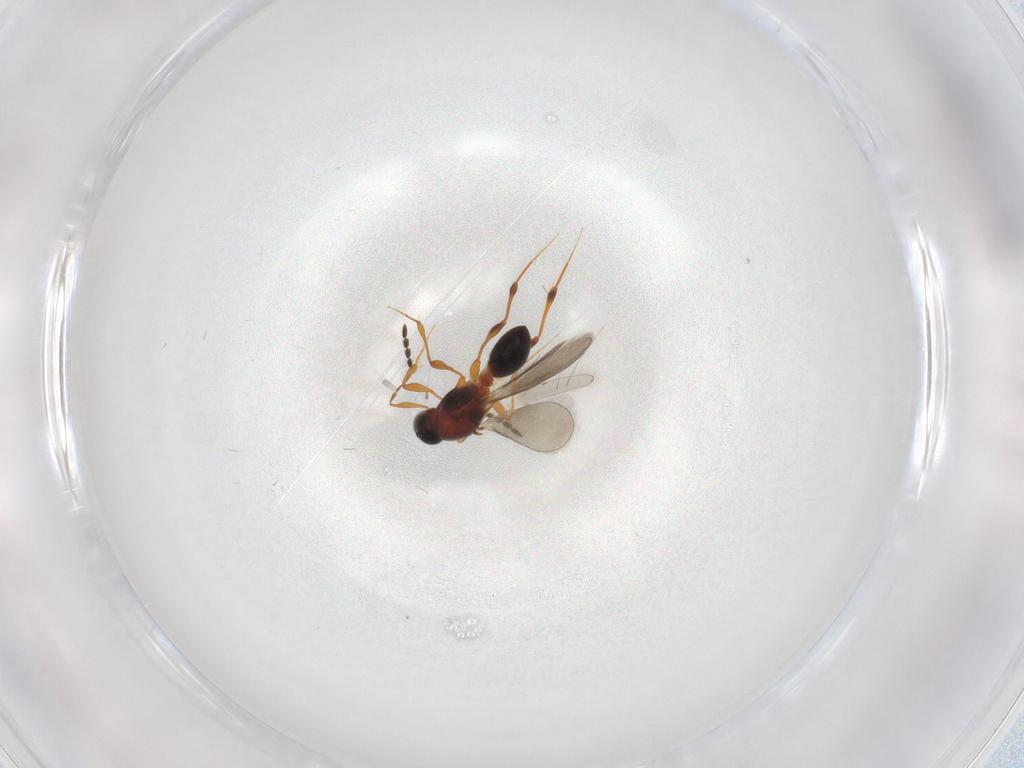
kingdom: Animalia
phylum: Arthropoda
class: Insecta
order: Hymenoptera
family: Platygastridae
